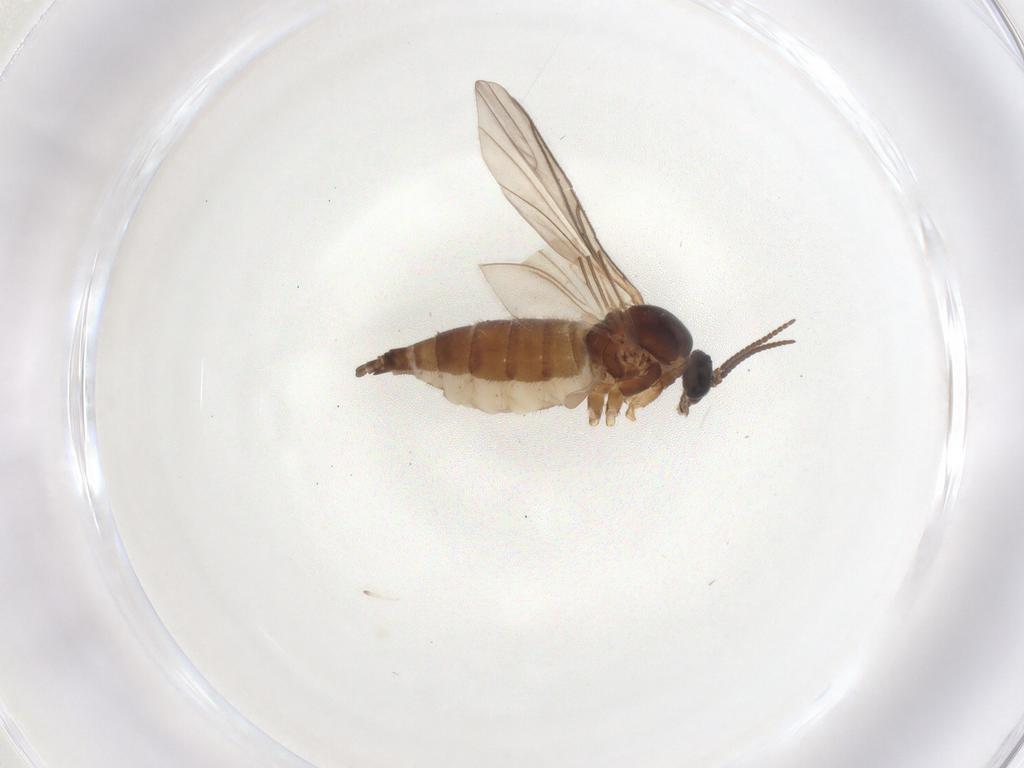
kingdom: Animalia
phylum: Arthropoda
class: Insecta
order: Diptera
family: Sciaridae
